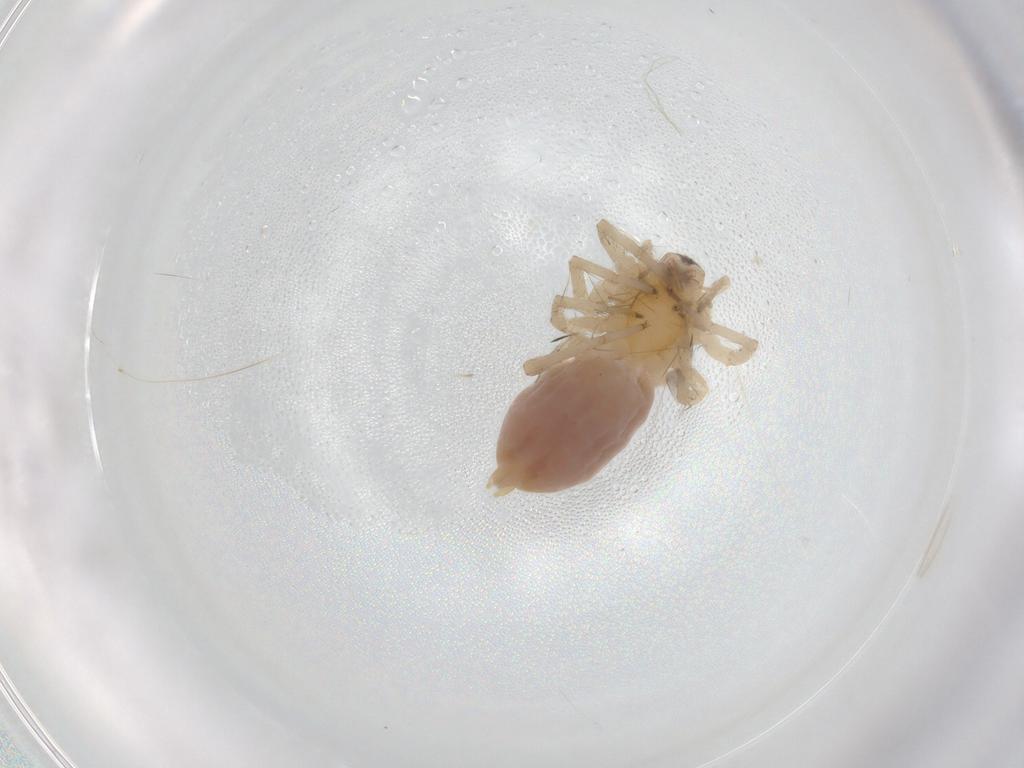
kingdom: Animalia
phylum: Arthropoda
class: Arachnida
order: Araneae
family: Anyphaenidae
